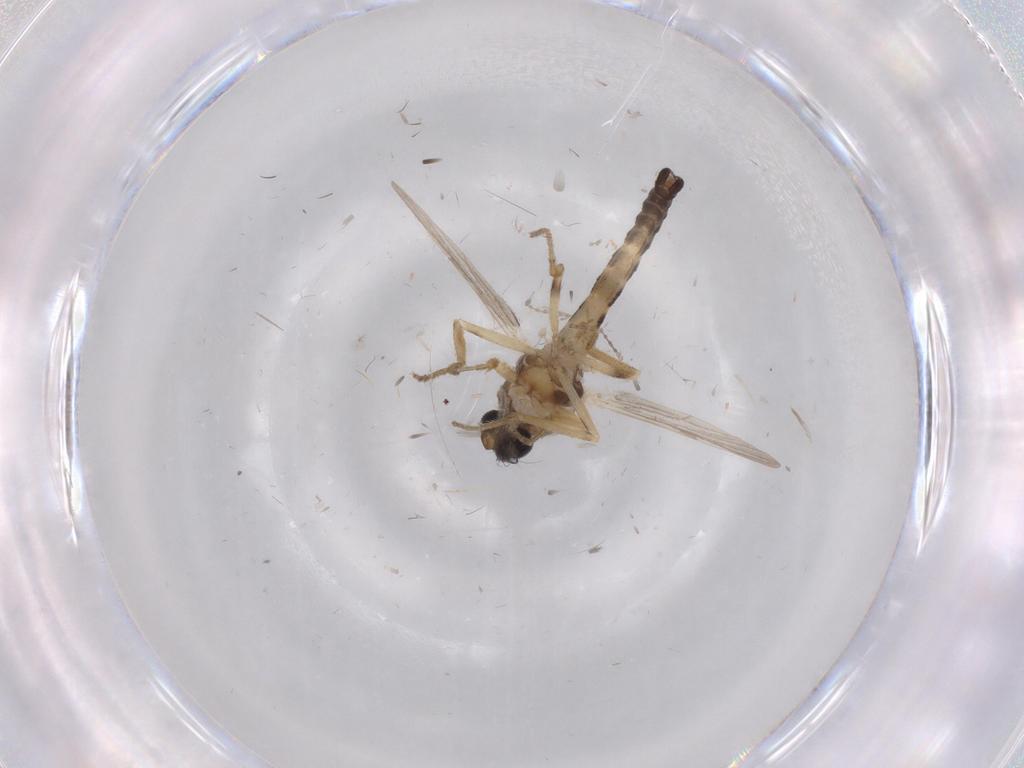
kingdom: Animalia
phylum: Arthropoda
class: Insecta
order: Diptera
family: Ceratopogonidae
